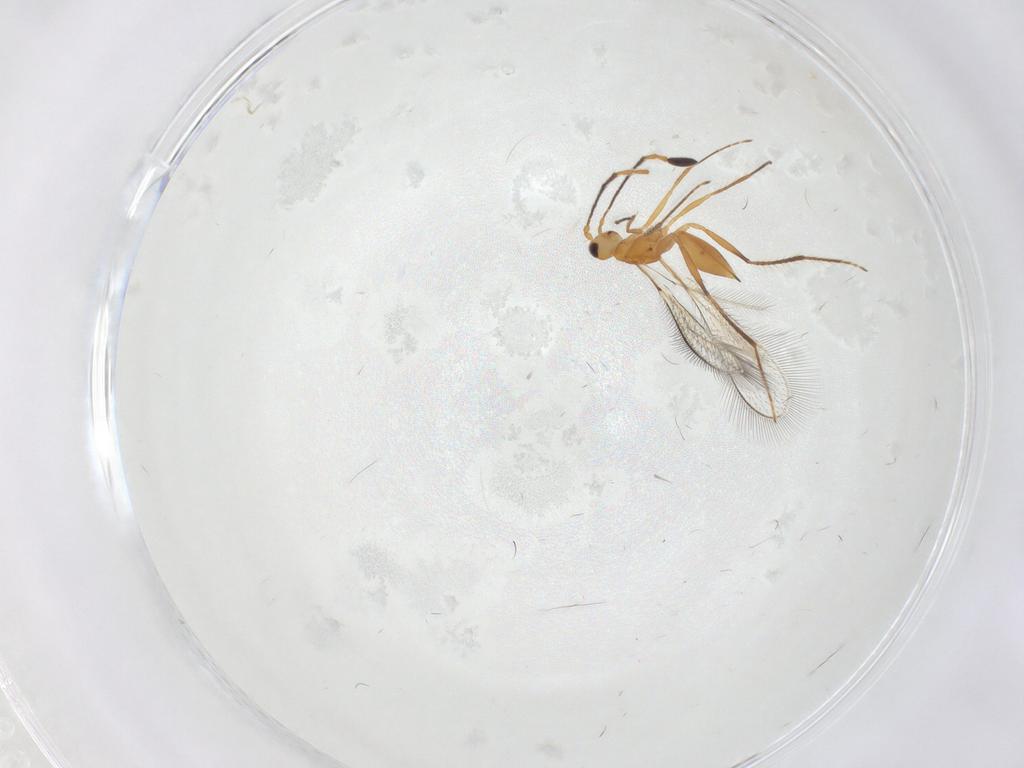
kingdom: Animalia
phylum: Arthropoda
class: Insecta
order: Hymenoptera
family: Mymaridae
